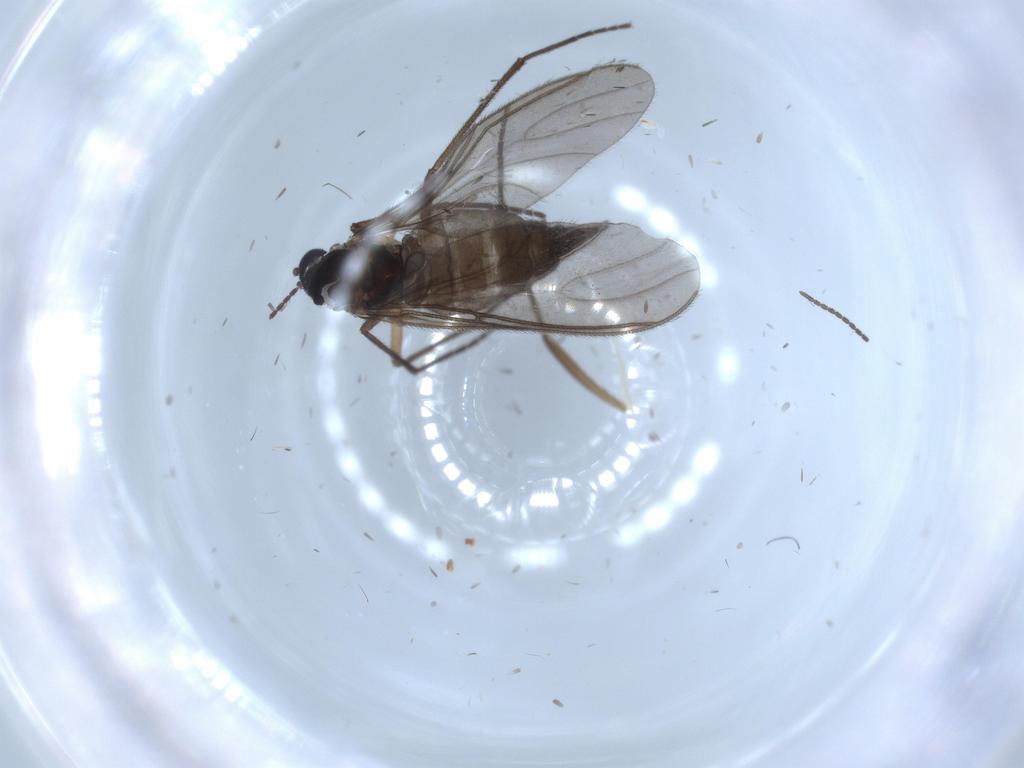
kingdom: Animalia
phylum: Arthropoda
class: Insecta
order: Diptera
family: Sciaridae
